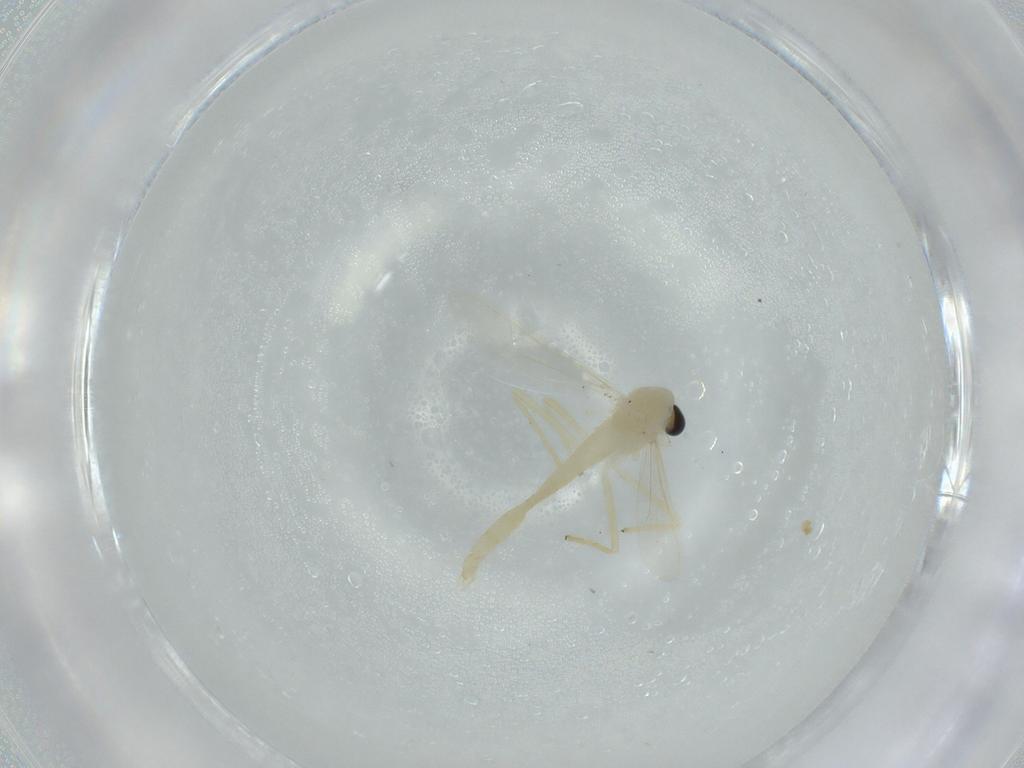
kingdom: Animalia
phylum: Arthropoda
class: Insecta
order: Diptera
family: Chironomidae
